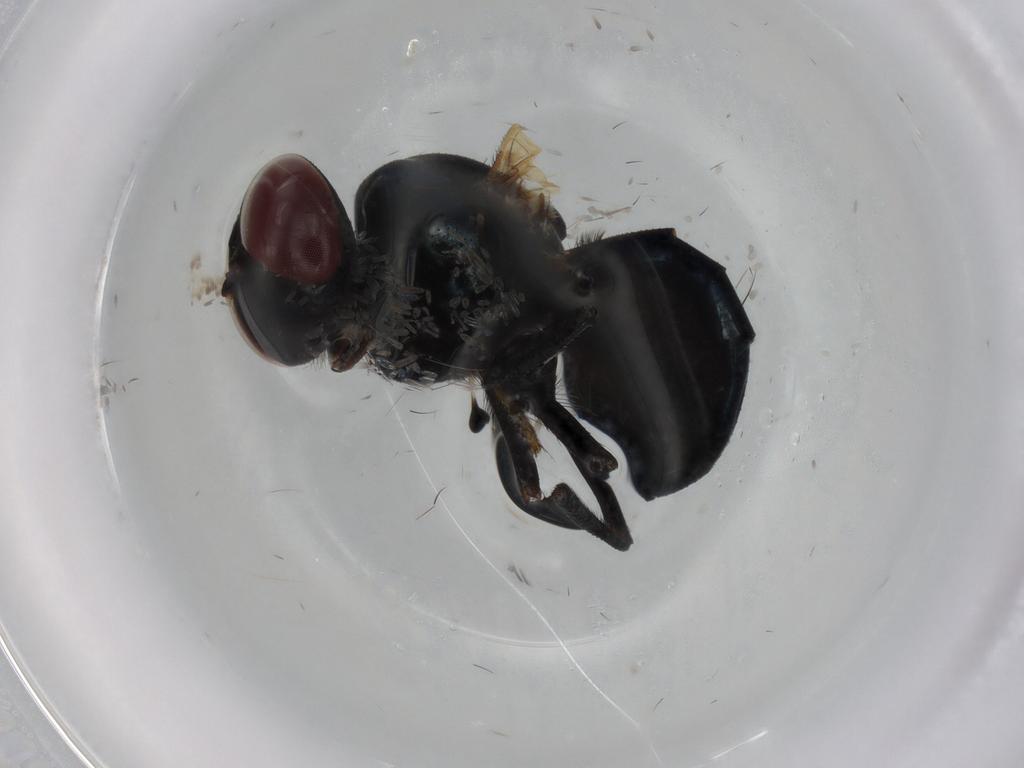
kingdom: Animalia
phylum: Arthropoda
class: Insecta
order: Diptera
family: Lonchaeidae
